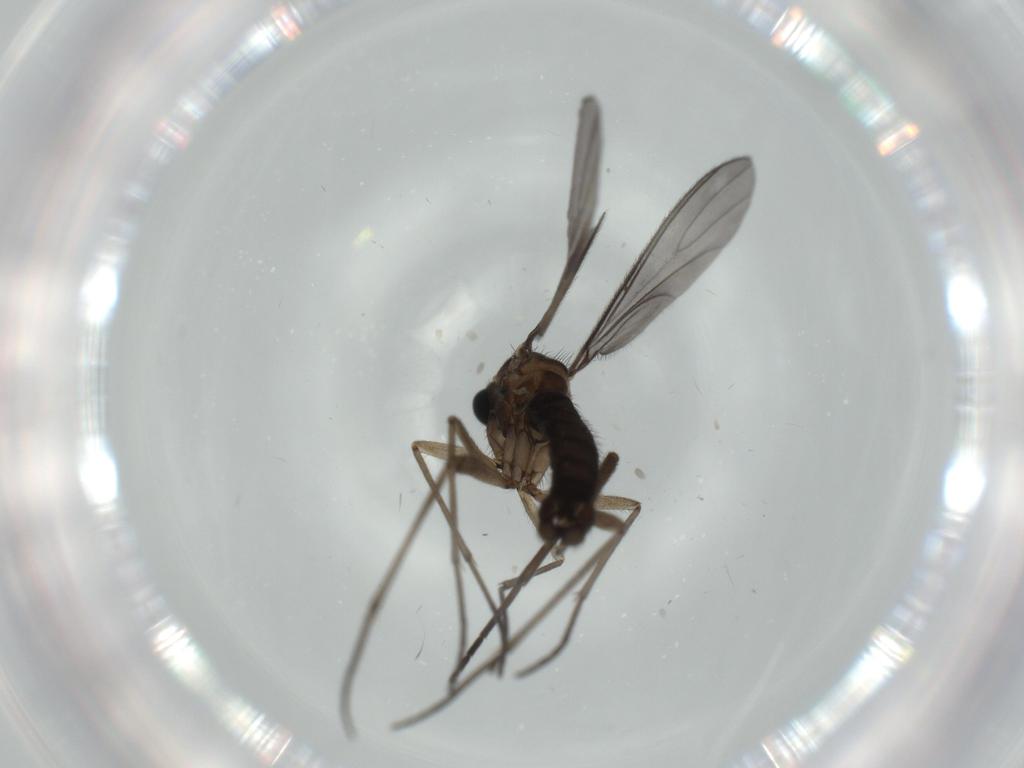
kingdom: Animalia
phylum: Arthropoda
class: Insecta
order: Diptera
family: Sciaridae
